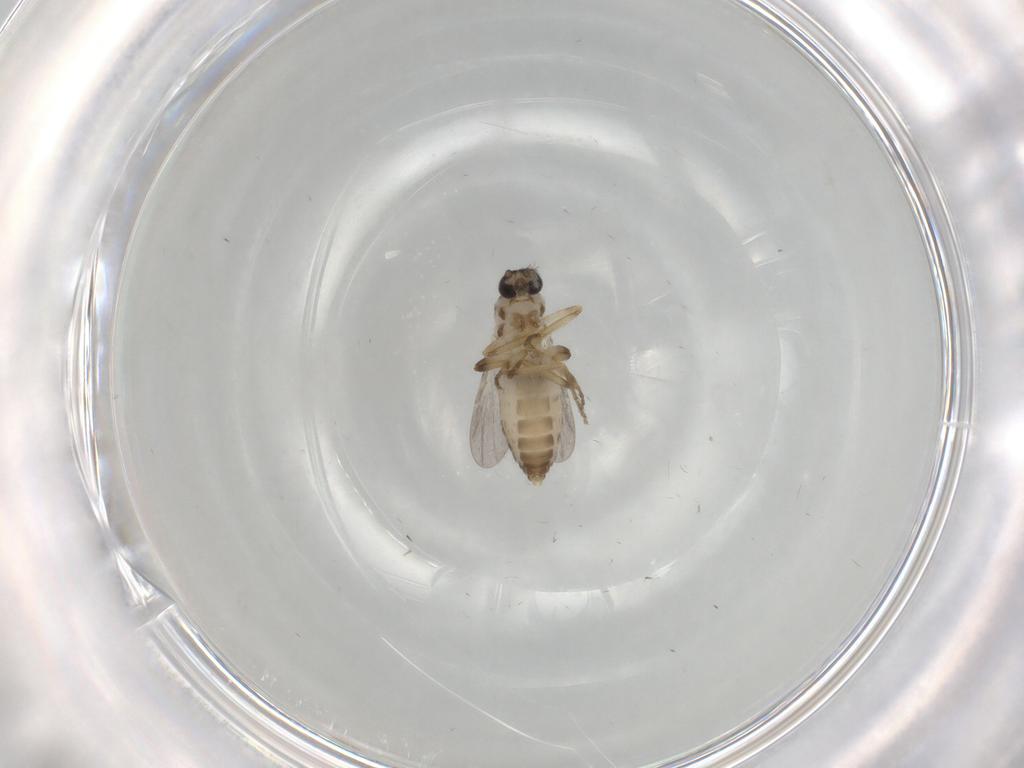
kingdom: Animalia
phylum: Arthropoda
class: Insecta
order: Diptera
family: Ceratopogonidae
